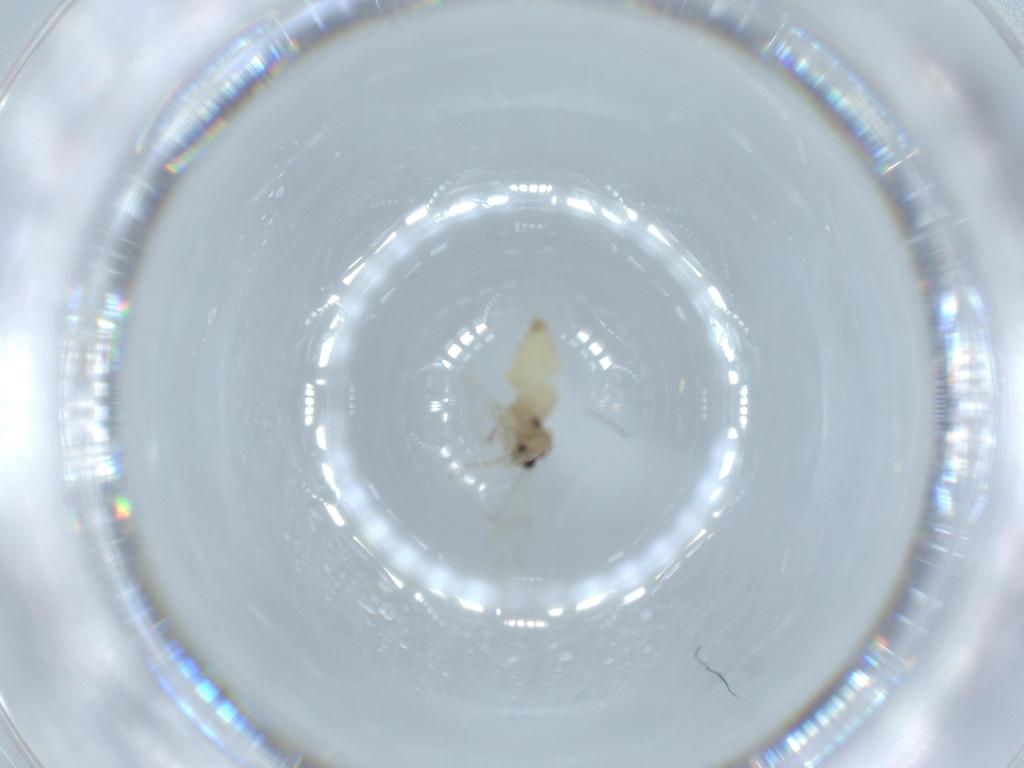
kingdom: Animalia
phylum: Arthropoda
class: Insecta
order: Diptera
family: Cecidomyiidae
